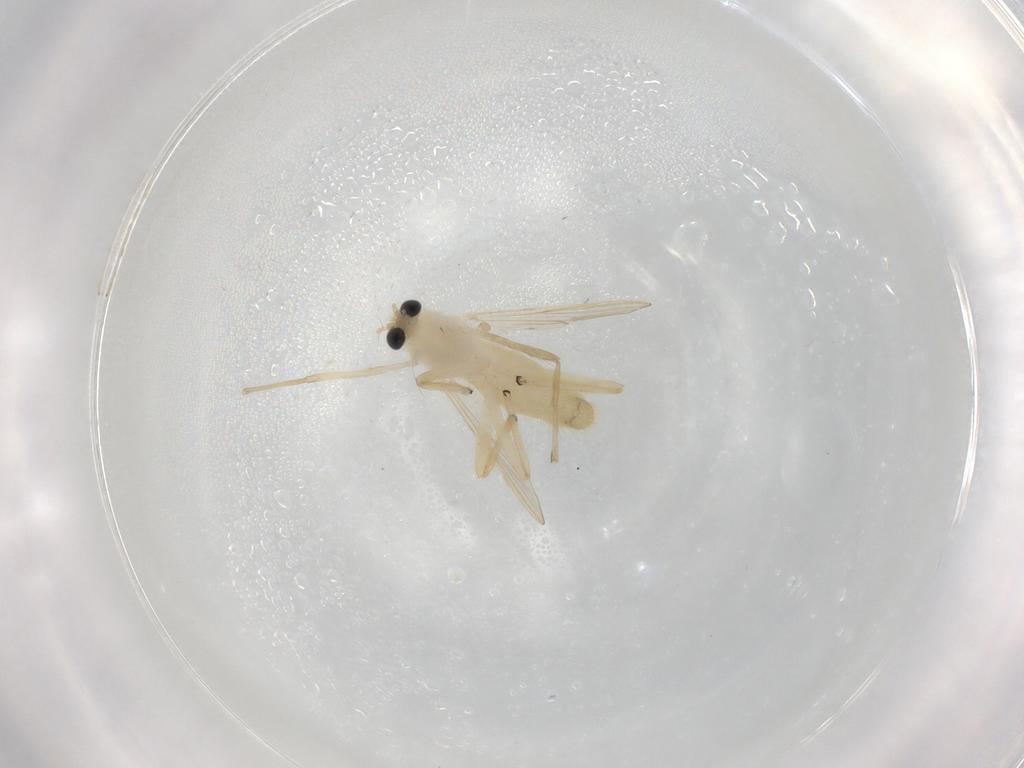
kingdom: Animalia
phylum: Arthropoda
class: Insecta
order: Diptera
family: Chironomidae
